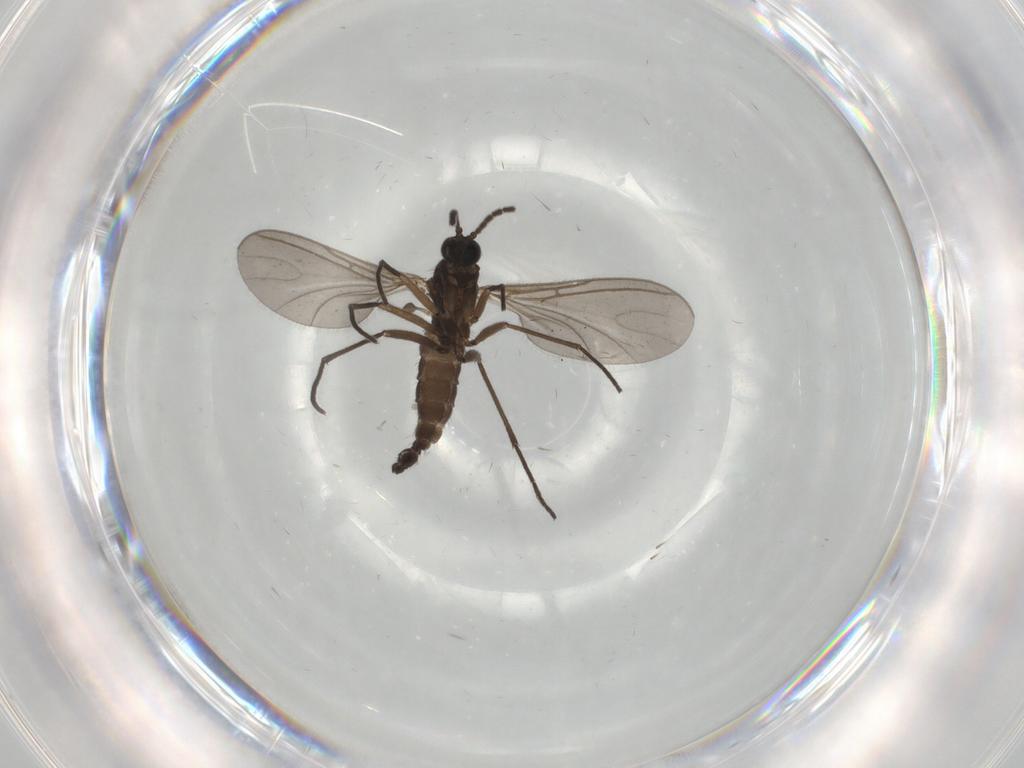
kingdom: Animalia
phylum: Arthropoda
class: Insecta
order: Diptera
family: Sciaridae
